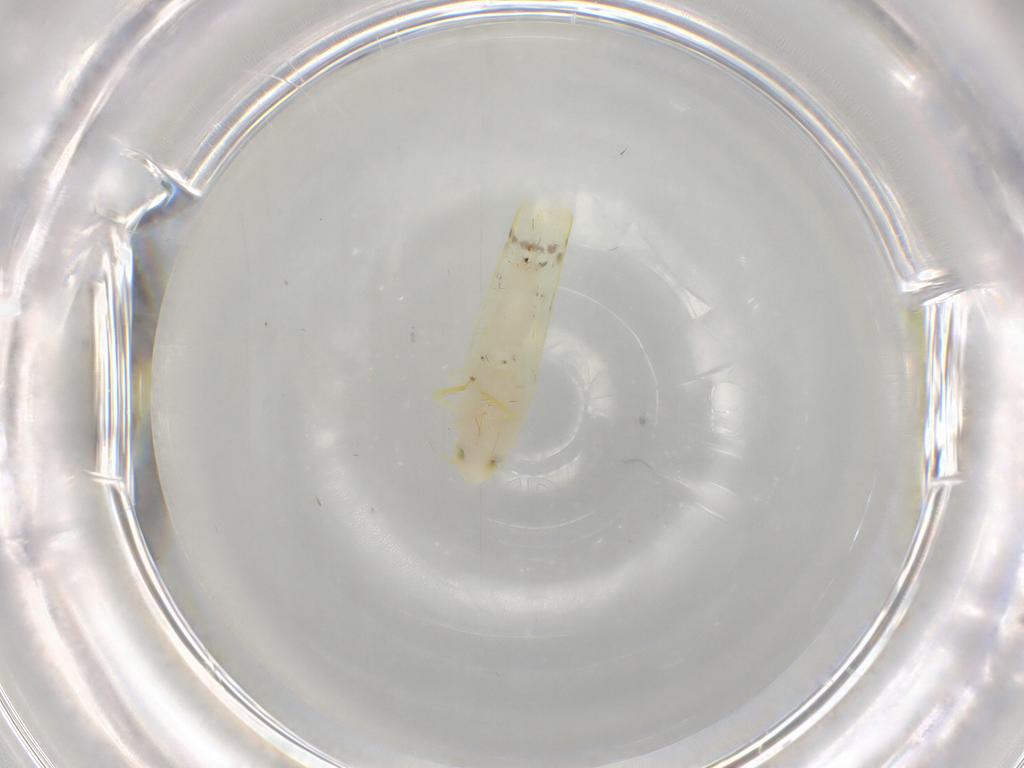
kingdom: Animalia
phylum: Arthropoda
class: Insecta
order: Hemiptera
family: Cicadellidae
